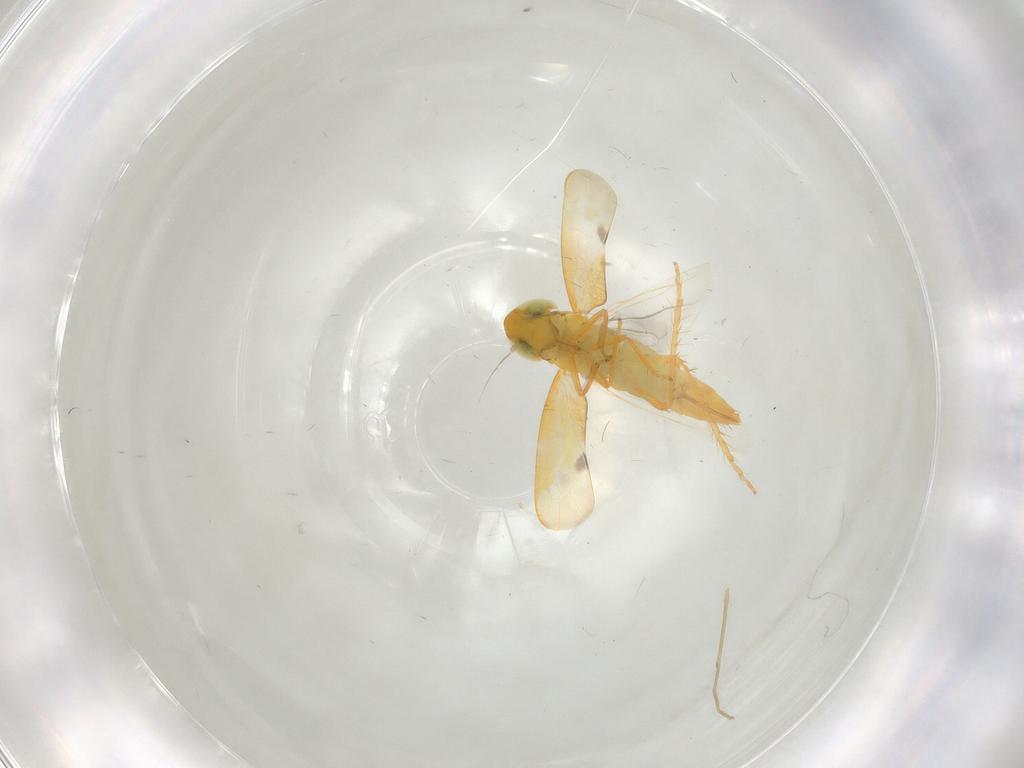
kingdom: Animalia
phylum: Arthropoda
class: Insecta
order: Hemiptera
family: Cicadellidae
